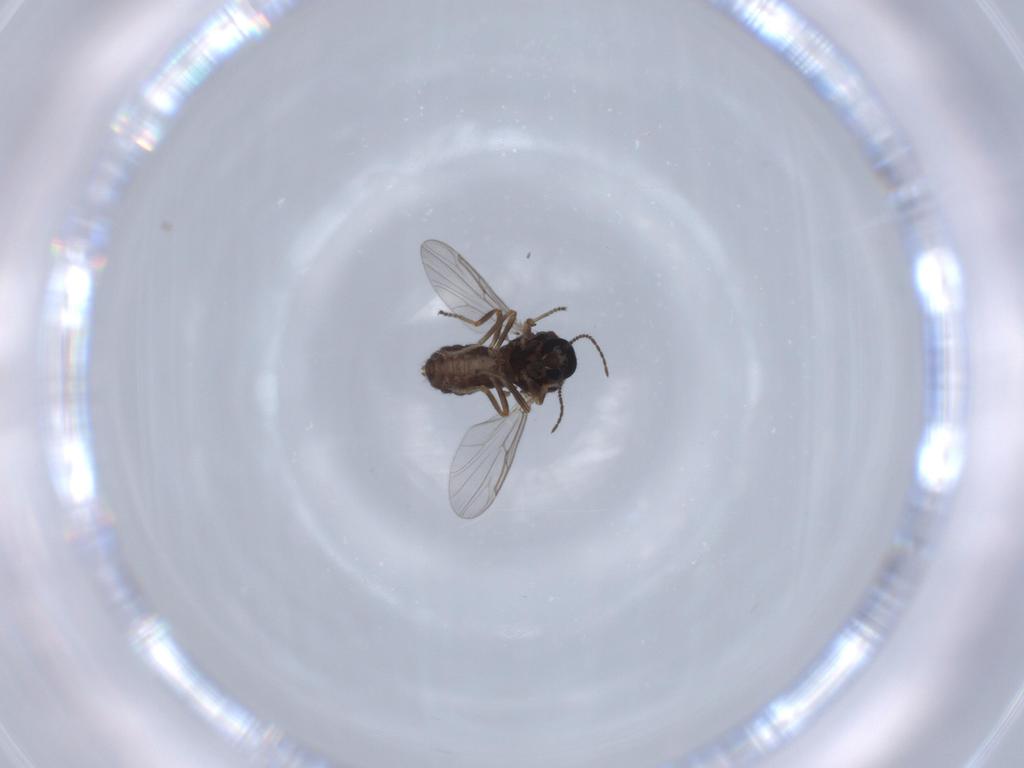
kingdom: Animalia
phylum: Arthropoda
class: Insecta
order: Diptera
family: Ceratopogonidae
